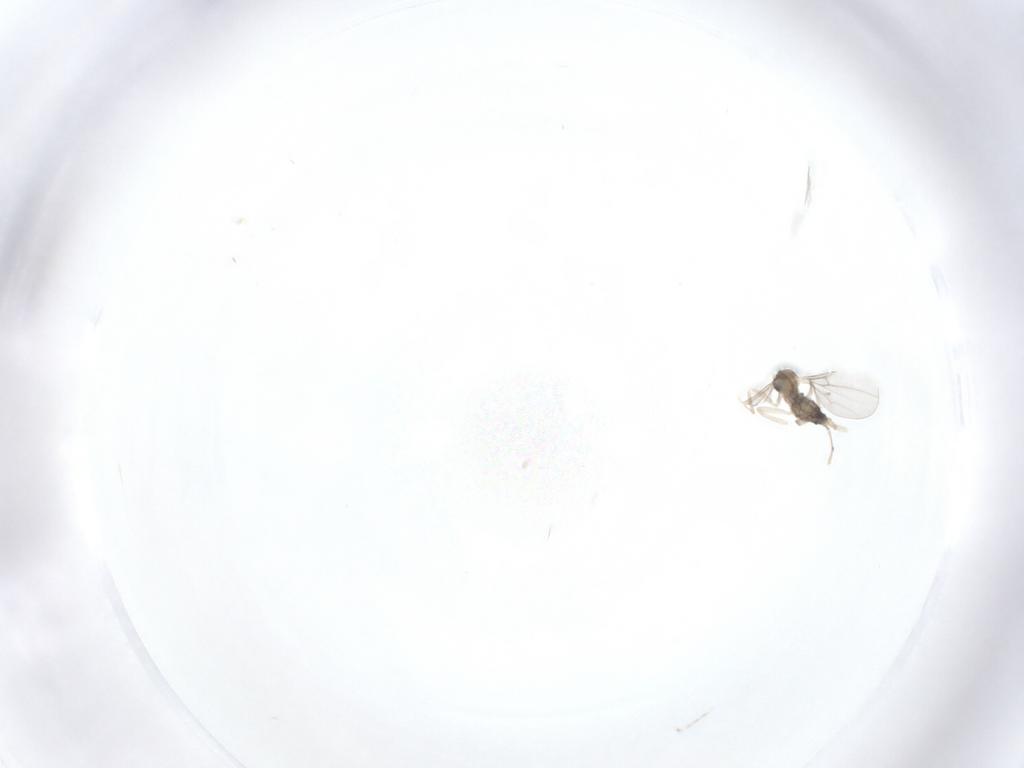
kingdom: Animalia
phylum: Arthropoda
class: Insecta
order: Diptera
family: Cecidomyiidae
